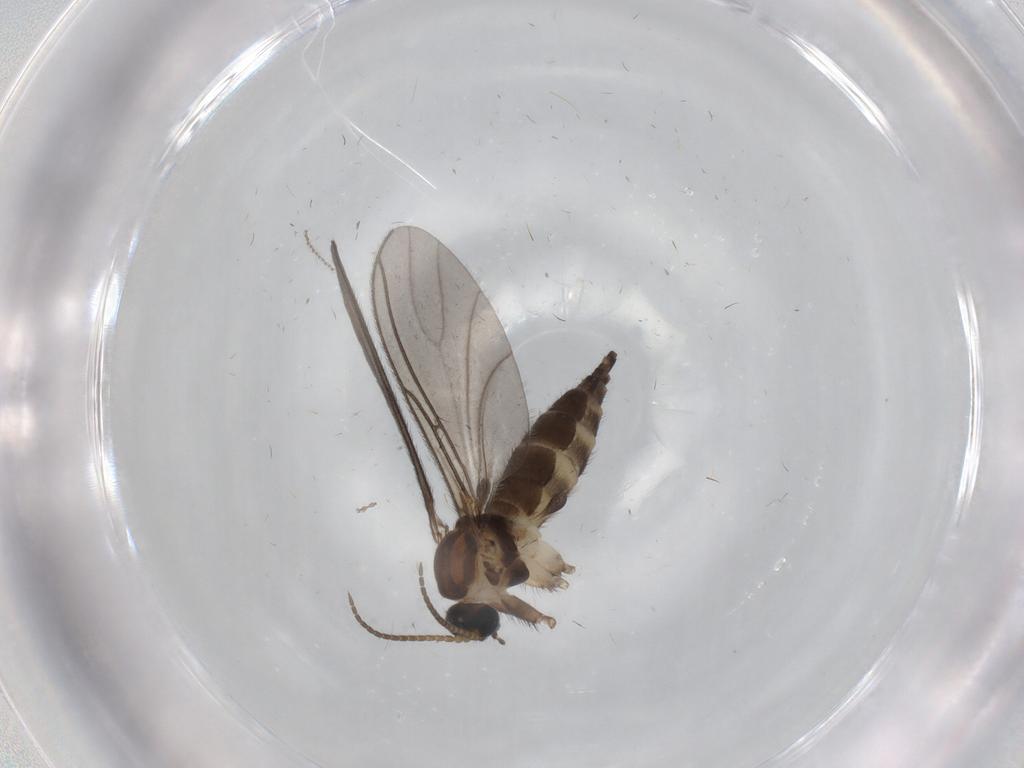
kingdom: Animalia
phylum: Arthropoda
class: Insecta
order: Diptera
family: Sciaridae
